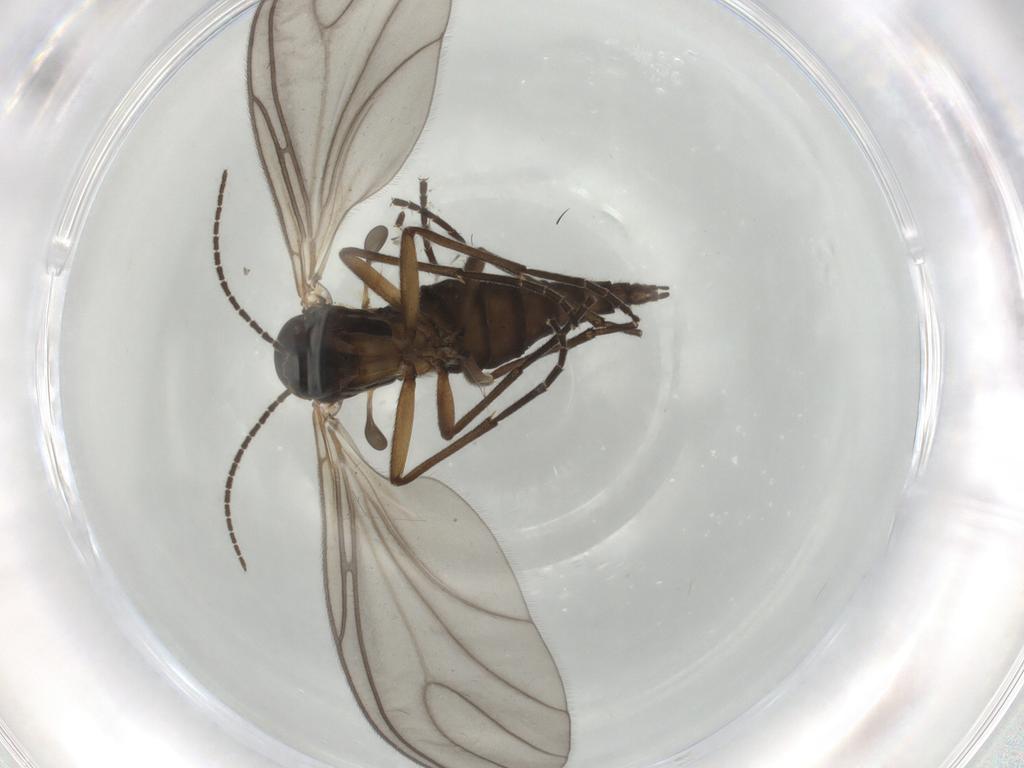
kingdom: Animalia
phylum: Arthropoda
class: Insecta
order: Diptera
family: Sciaridae
